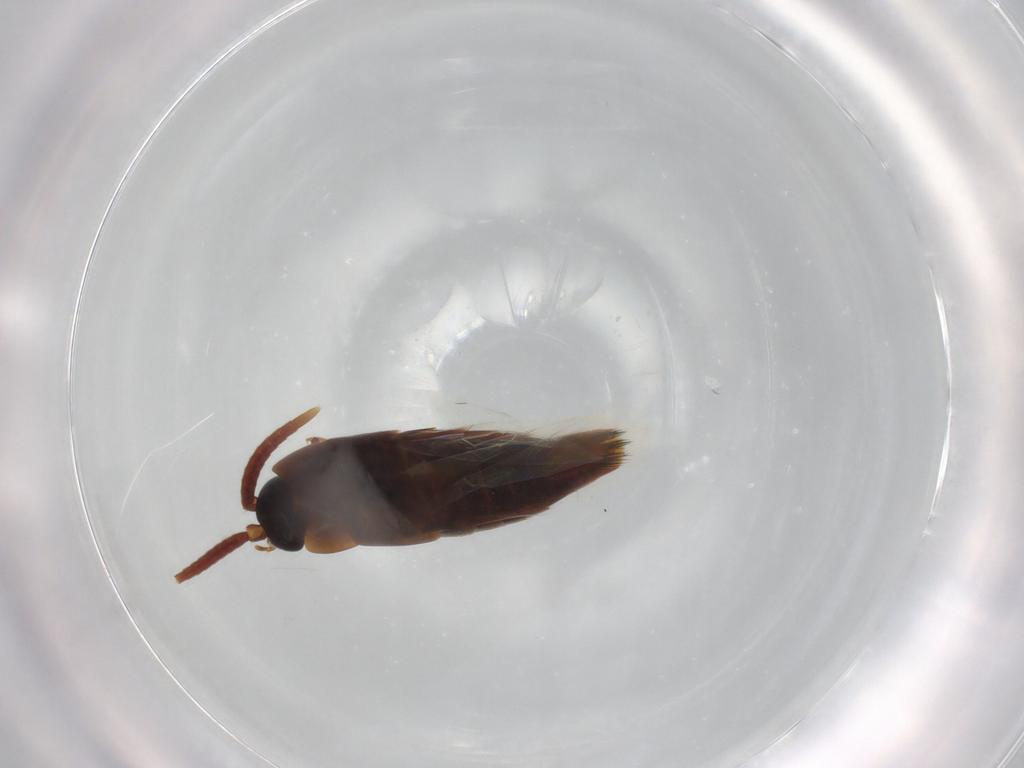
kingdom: Animalia
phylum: Arthropoda
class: Insecta
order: Coleoptera
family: Staphylinidae
